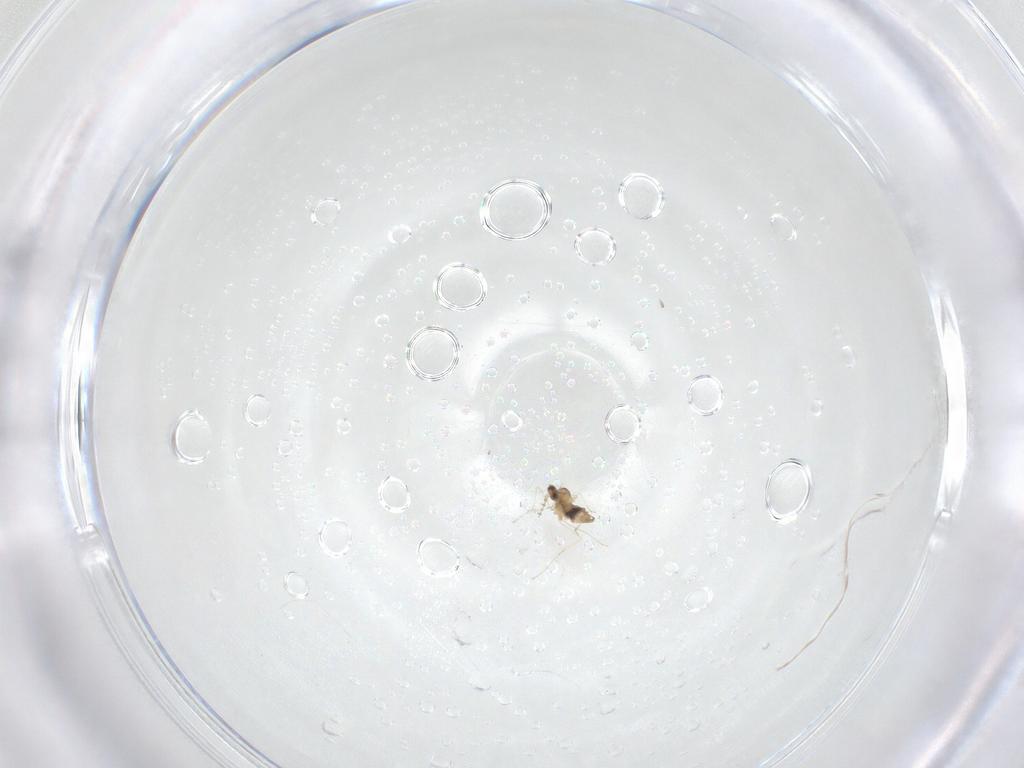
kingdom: Animalia
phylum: Arthropoda
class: Insecta
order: Diptera
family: Cecidomyiidae
